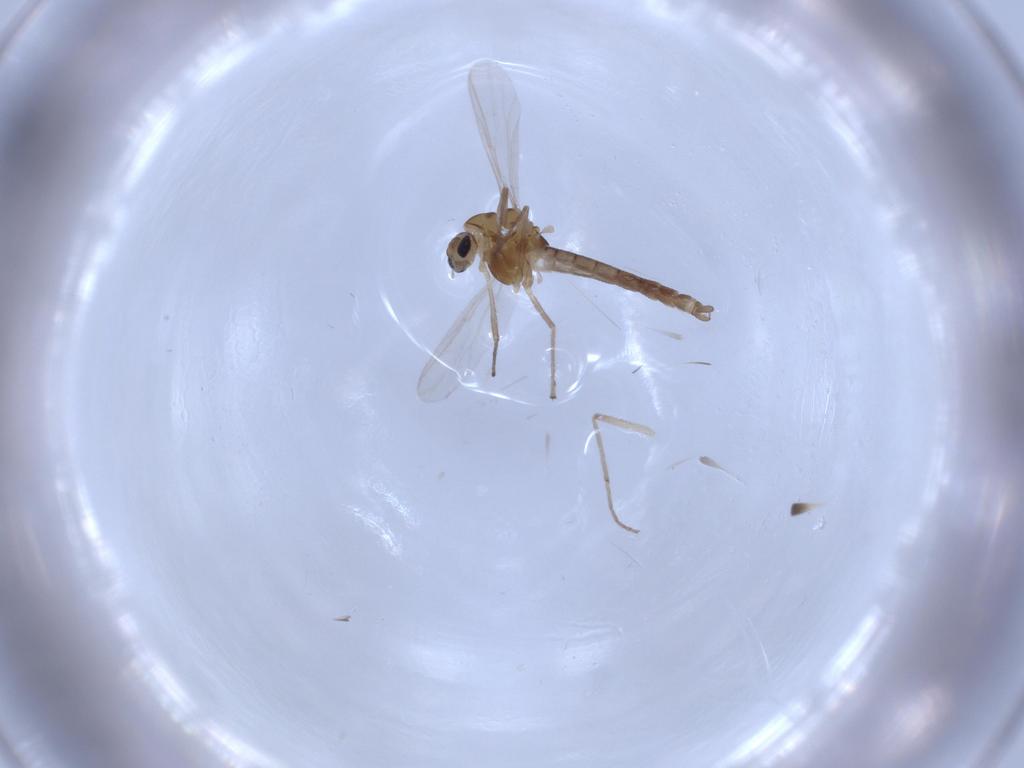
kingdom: Animalia
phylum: Arthropoda
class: Insecta
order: Diptera
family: Chironomidae
